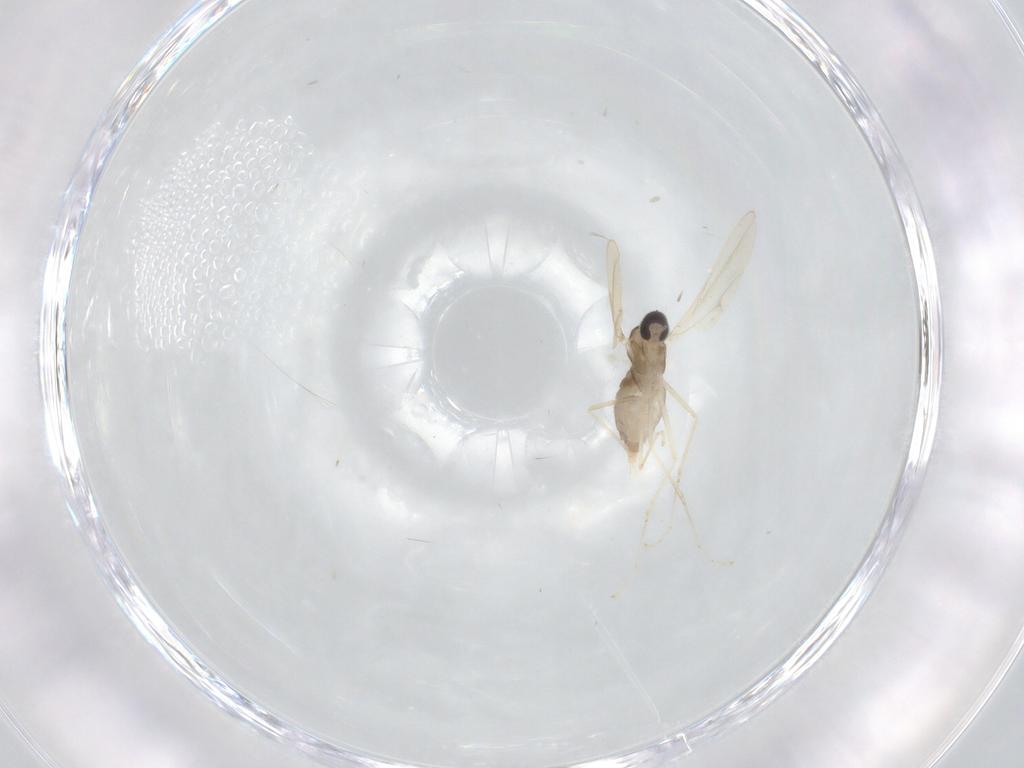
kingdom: Animalia
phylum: Arthropoda
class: Insecta
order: Diptera
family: Cecidomyiidae
